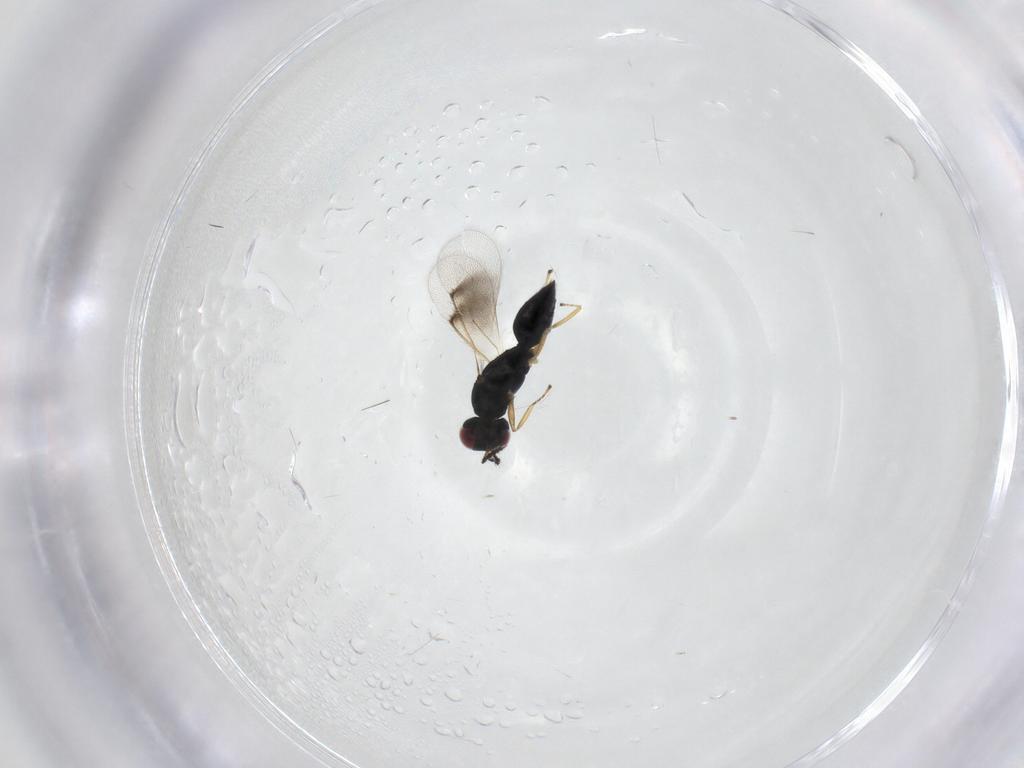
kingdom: Animalia
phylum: Arthropoda
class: Insecta
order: Hymenoptera
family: Eulophidae
